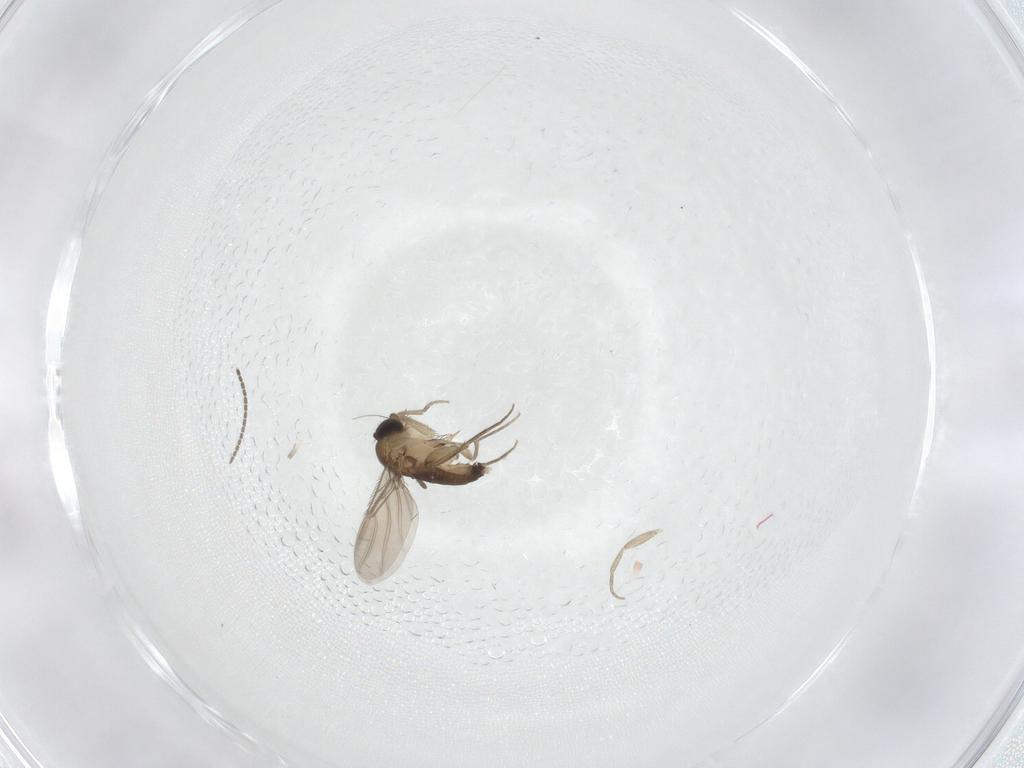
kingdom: Animalia
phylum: Arthropoda
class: Insecta
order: Diptera
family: Phoridae
